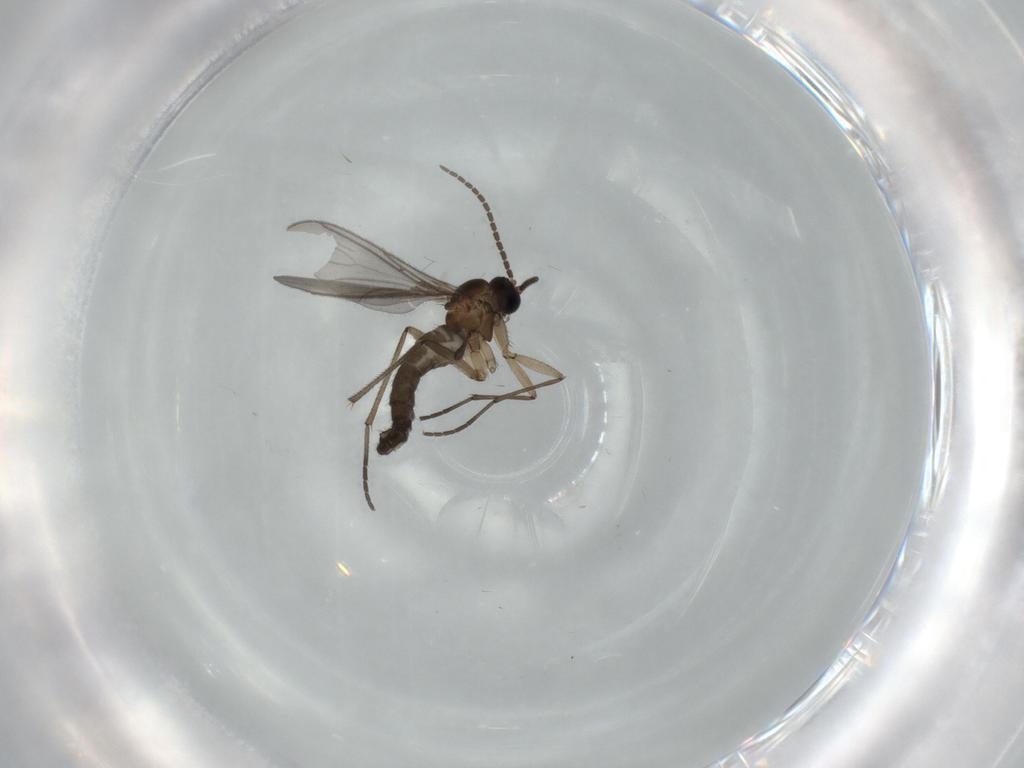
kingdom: Animalia
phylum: Arthropoda
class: Insecta
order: Diptera
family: Sciaridae
